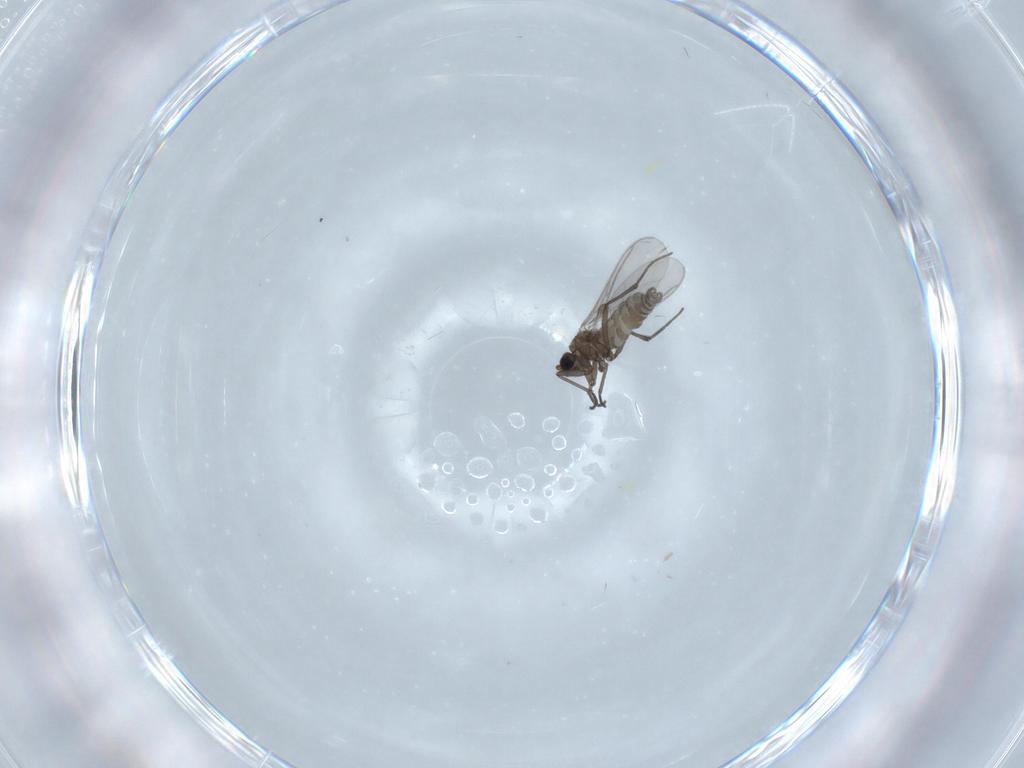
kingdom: Animalia
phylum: Arthropoda
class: Insecta
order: Diptera
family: Sciaridae
